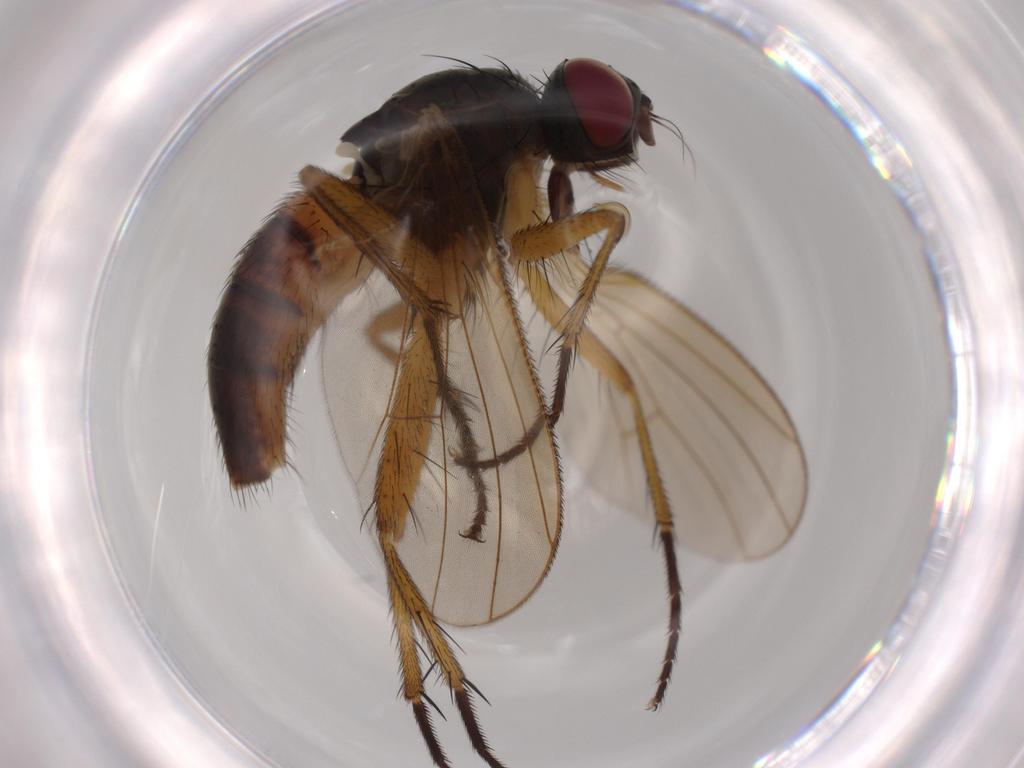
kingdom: Animalia
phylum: Arthropoda
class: Insecta
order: Diptera
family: Muscidae
